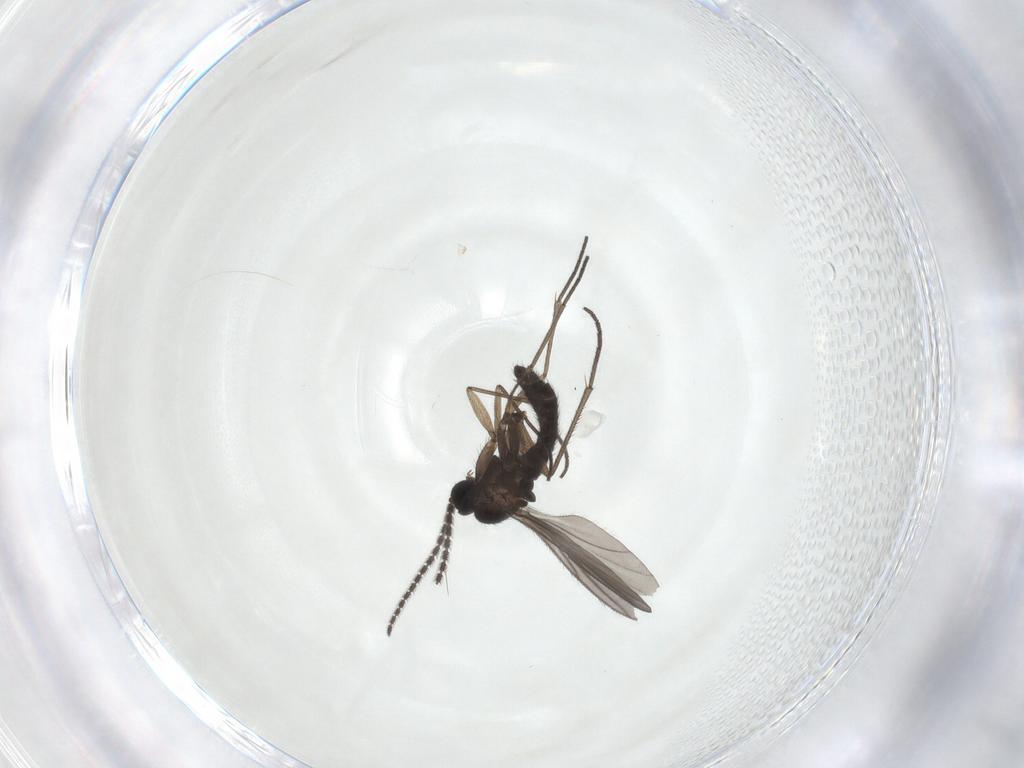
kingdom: Animalia
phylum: Arthropoda
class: Insecta
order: Diptera
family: Sciaridae
